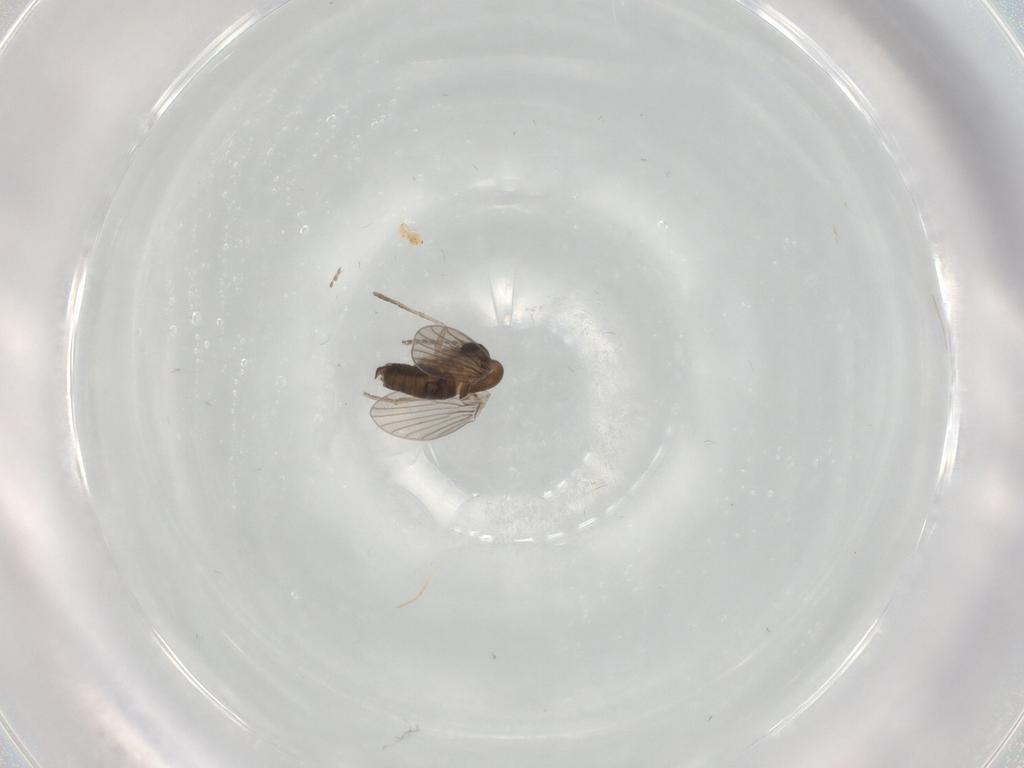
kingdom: Animalia
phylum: Arthropoda
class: Insecta
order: Diptera
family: Psychodidae
